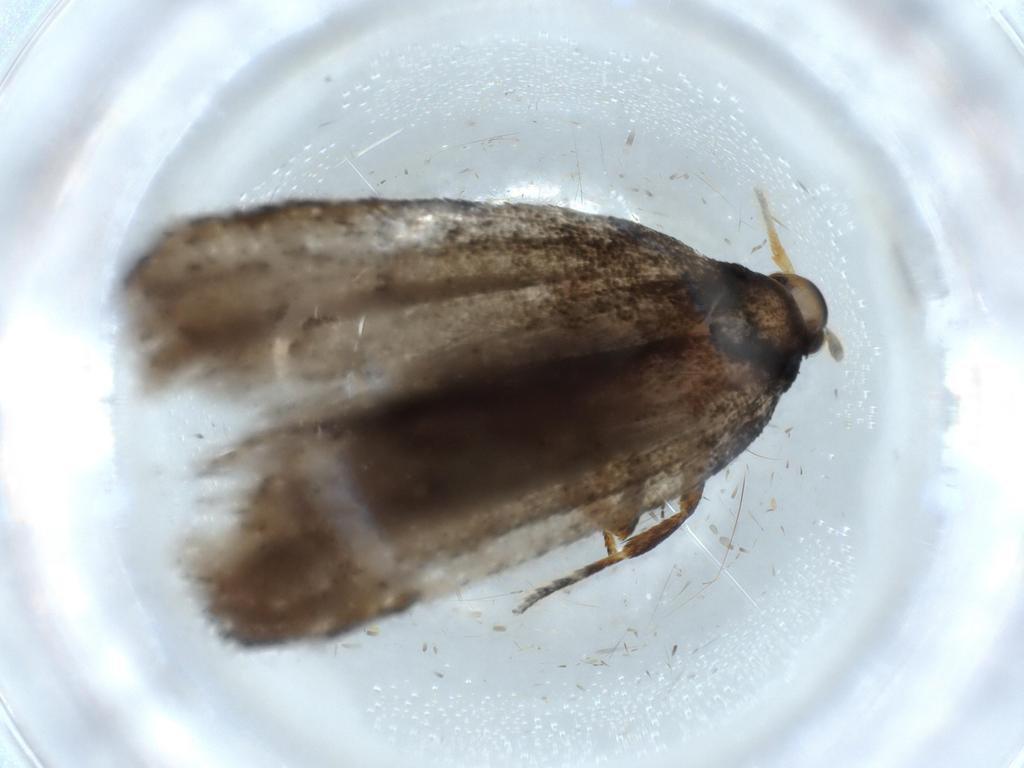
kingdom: Animalia
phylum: Arthropoda
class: Insecta
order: Lepidoptera
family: Lecithoceridae
